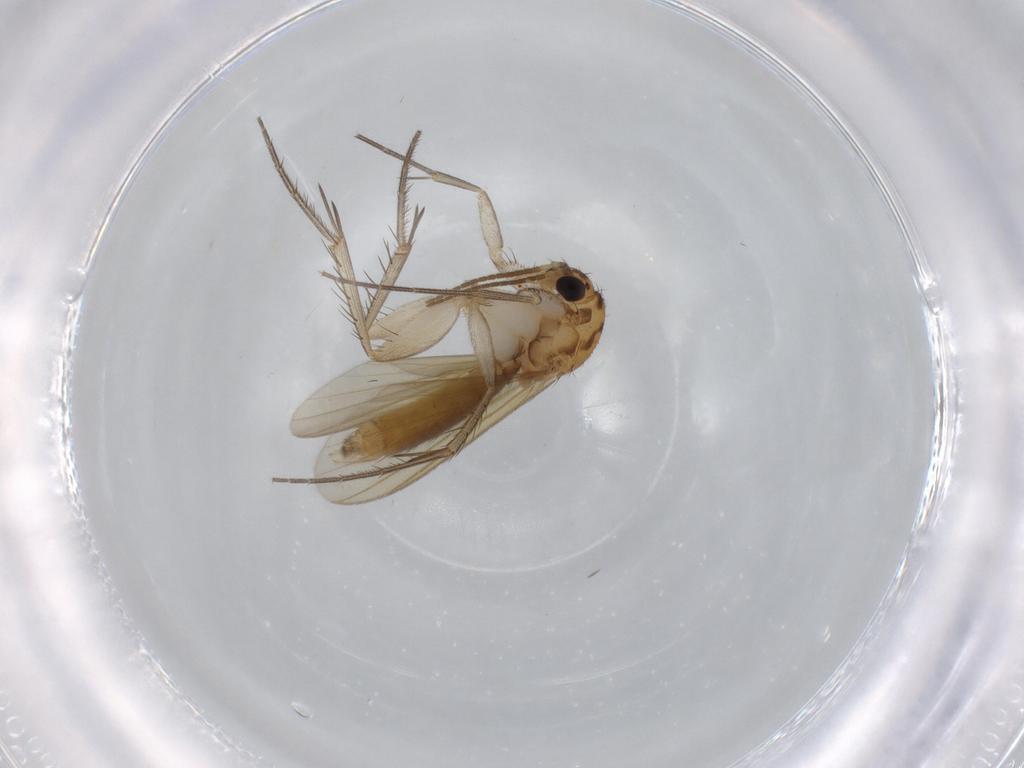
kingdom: Animalia
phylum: Arthropoda
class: Insecta
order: Diptera
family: Mycetophilidae
